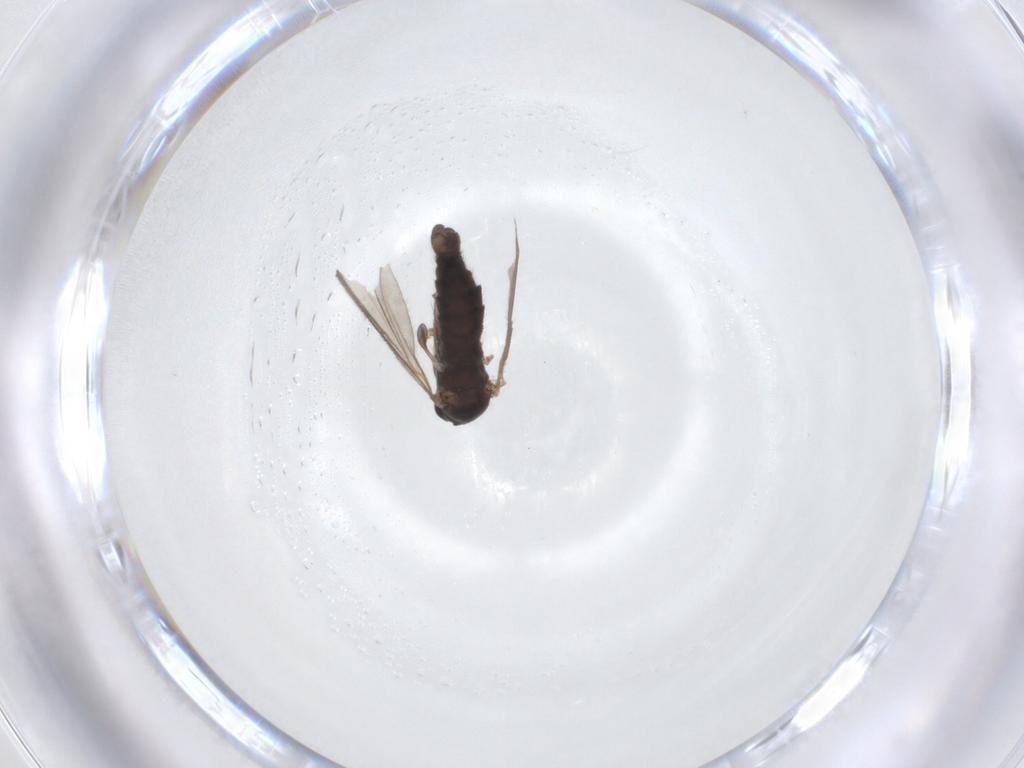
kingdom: Animalia
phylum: Arthropoda
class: Insecta
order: Diptera
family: Sciaridae
